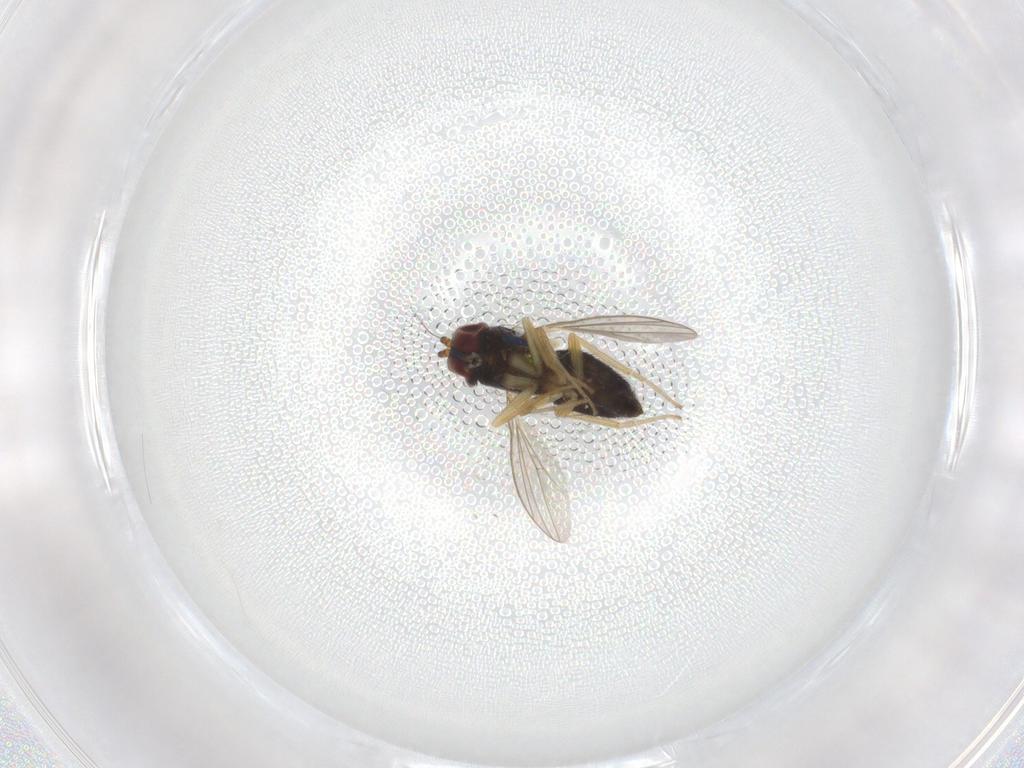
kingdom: Animalia
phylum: Arthropoda
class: Insecta
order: Diptera
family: Dolichopodidae
